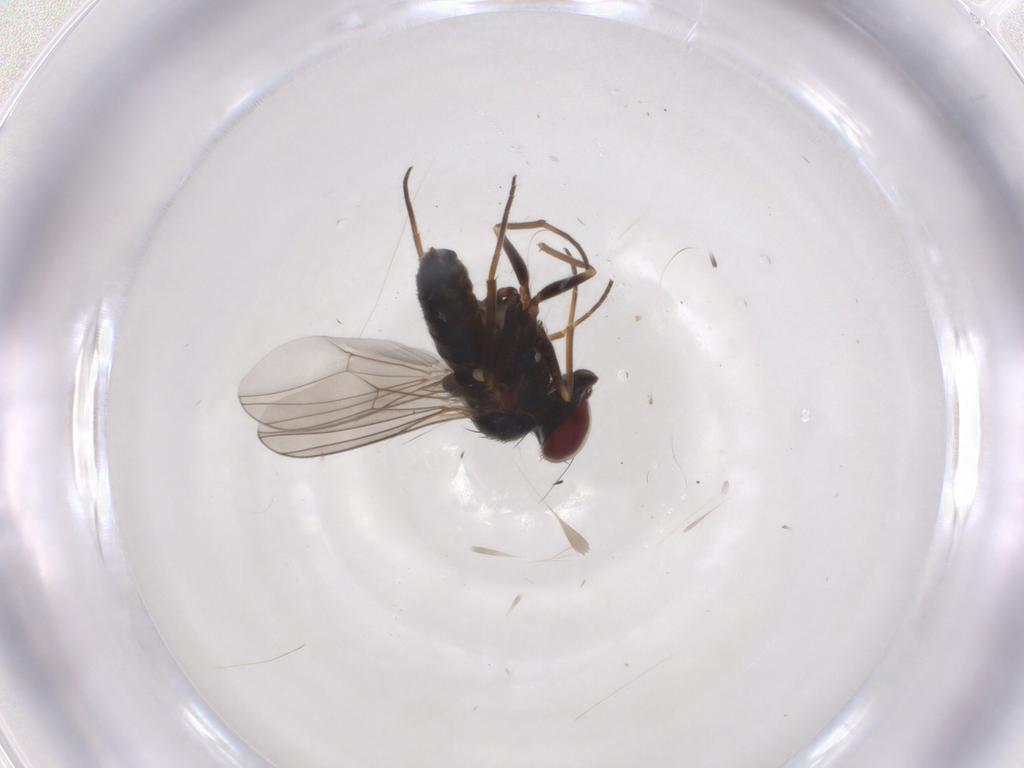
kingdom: Animalia
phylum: Arthropoda
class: Insecta
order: Diptera
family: Dolichopodidae
